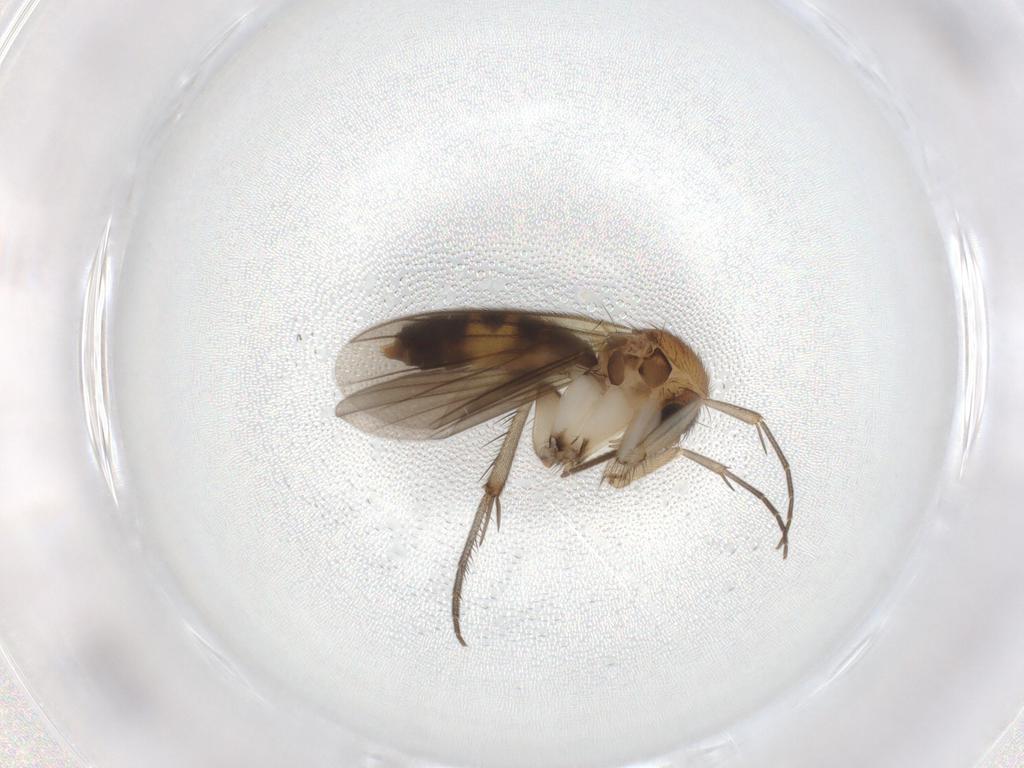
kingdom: Animalia
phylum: Arthropoda
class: Insecta
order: Diptera
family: Mycetophilidae
